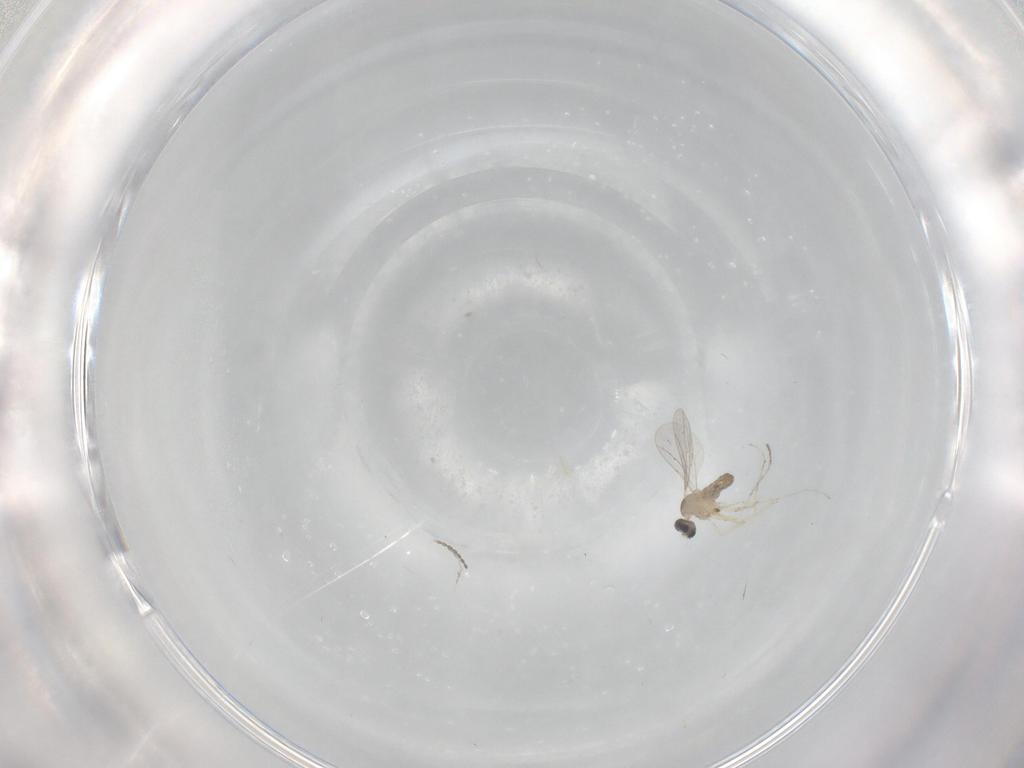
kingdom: Animalia
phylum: Arthropoda
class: Insecta
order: Diptera
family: Cecidomyiidae
